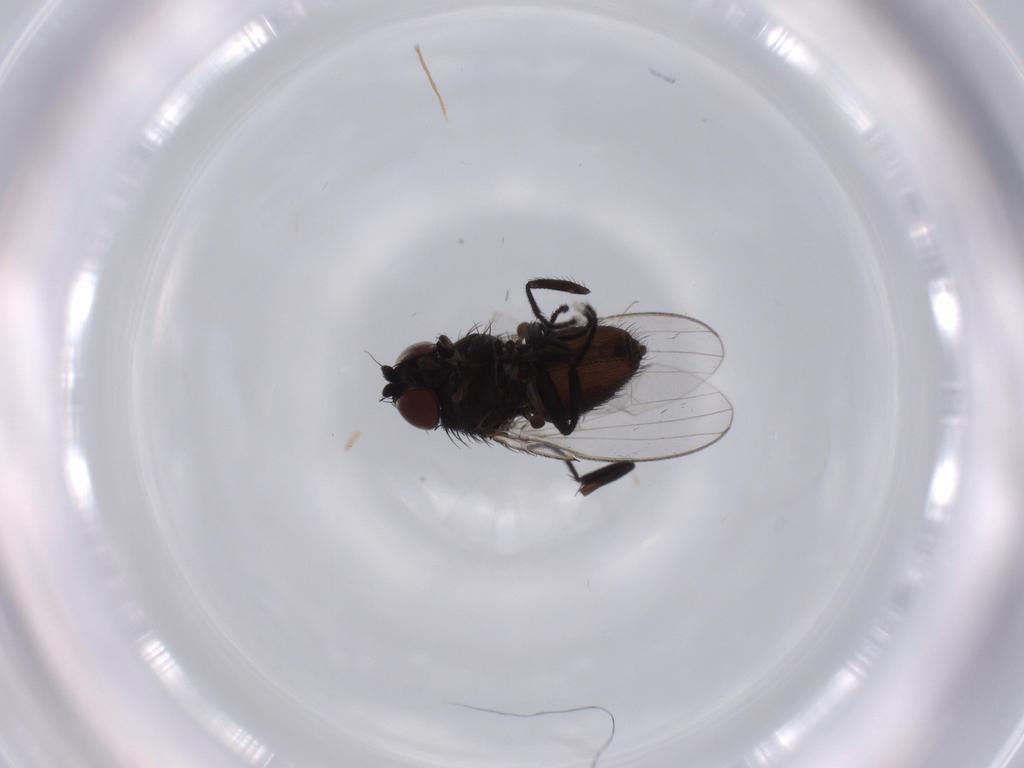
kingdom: Animalia
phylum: Arthropoda
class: Insecta
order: Diptera
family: Milichiidae
